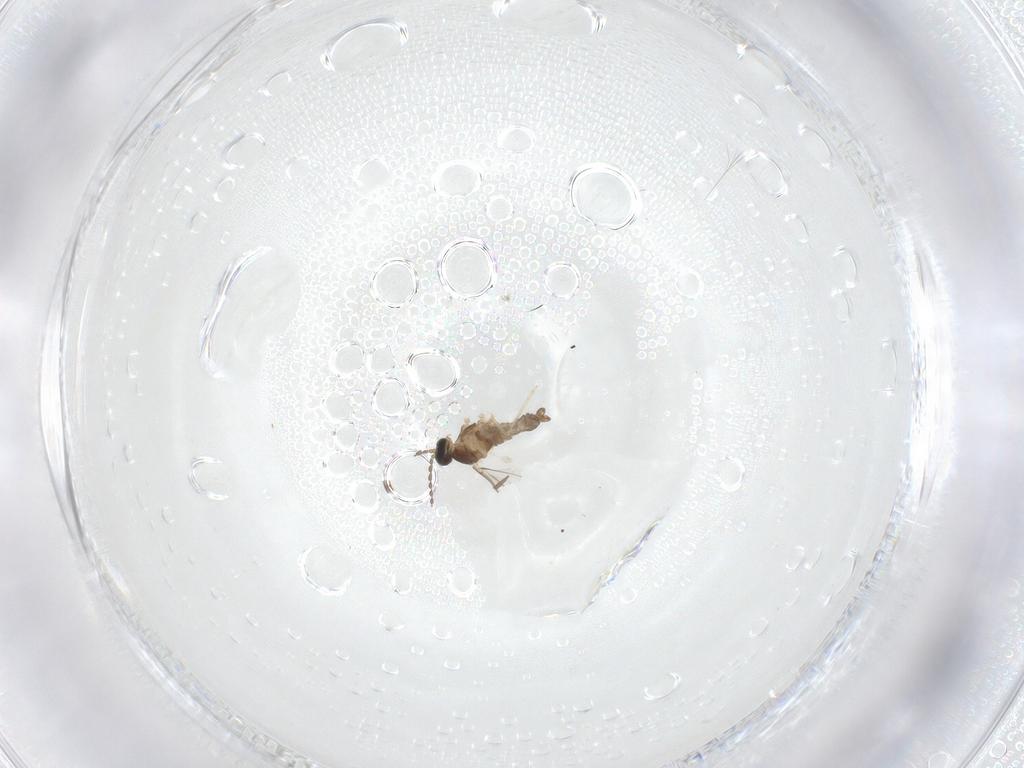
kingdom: Animalia
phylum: Arthropoda
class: Insecta
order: Diptera
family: Cecidomyiidae
